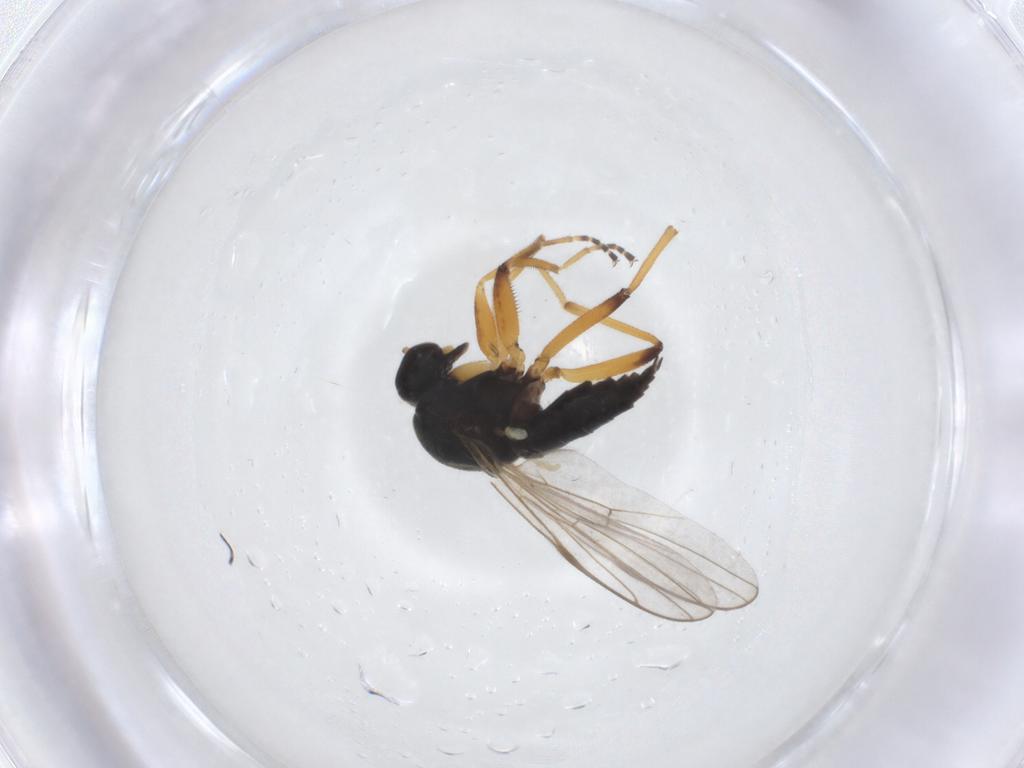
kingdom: Animalia
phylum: Arthropoda
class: Insecta
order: Diptera
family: Hybotidae
